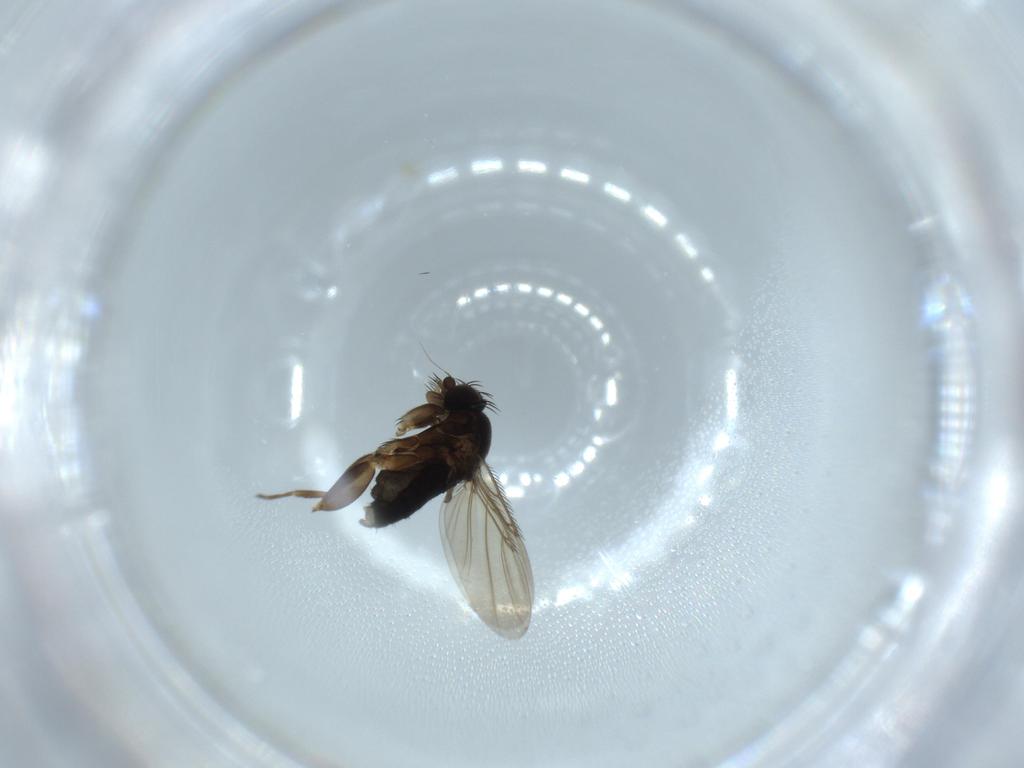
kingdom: Animalia
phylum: Arthropoda
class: Insecta
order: Diptera
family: Phoridae
